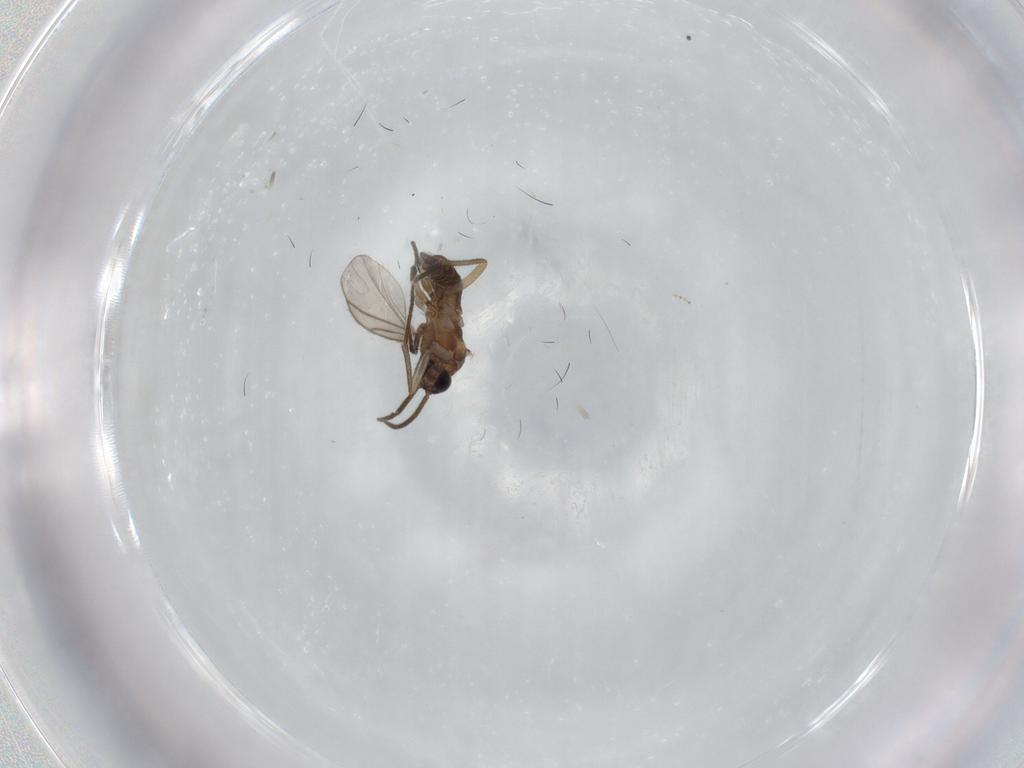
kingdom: Animalia
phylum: Arthropoda
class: Insecta
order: Diptera
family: Sciaridae
